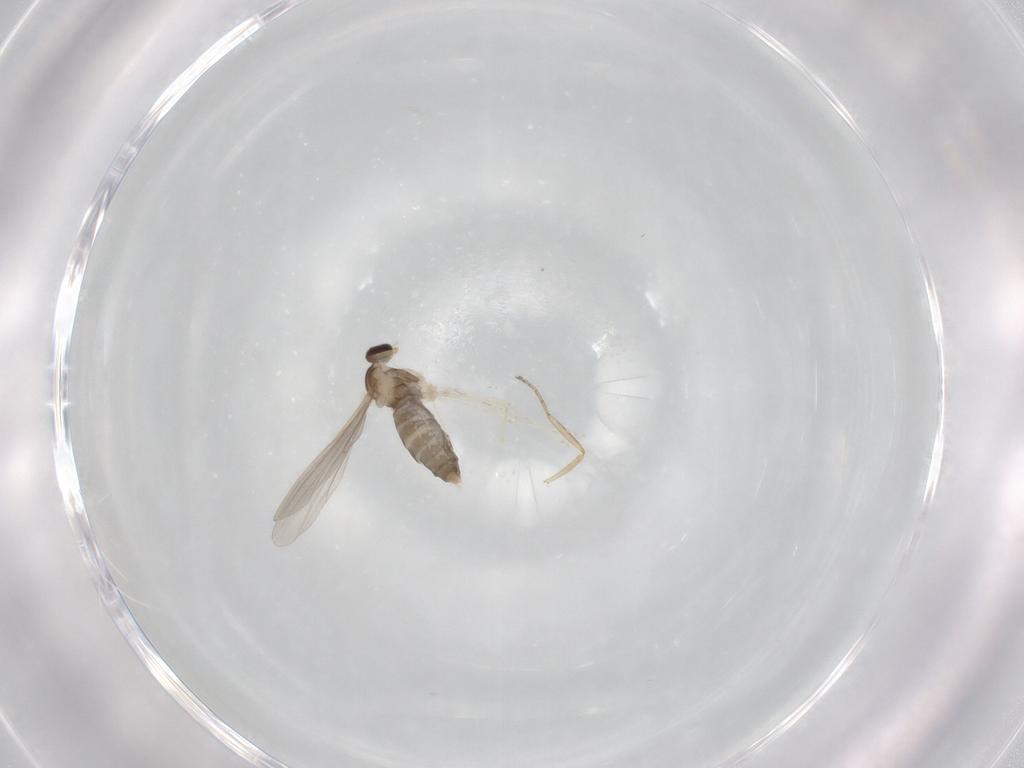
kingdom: Animalia
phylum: Arthropoda
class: Insecta
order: Diptera
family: Cecidomyiidae
